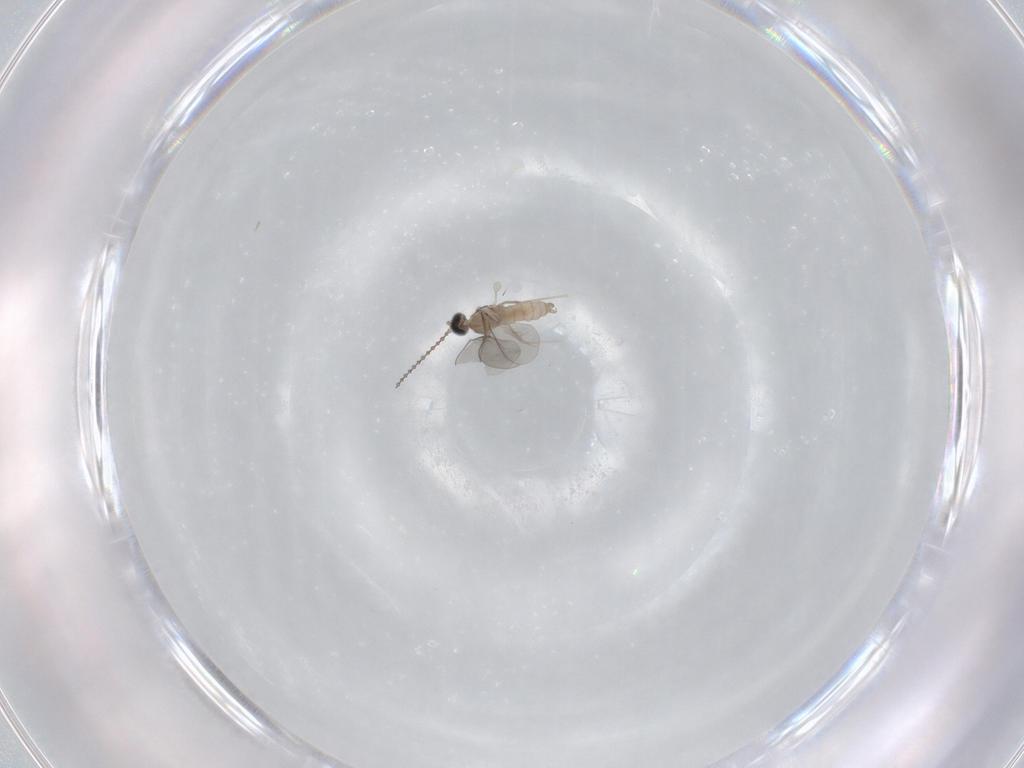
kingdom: Animalia
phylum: Arthropoda
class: Insecta
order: Diptera
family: Cecidomyiidae
